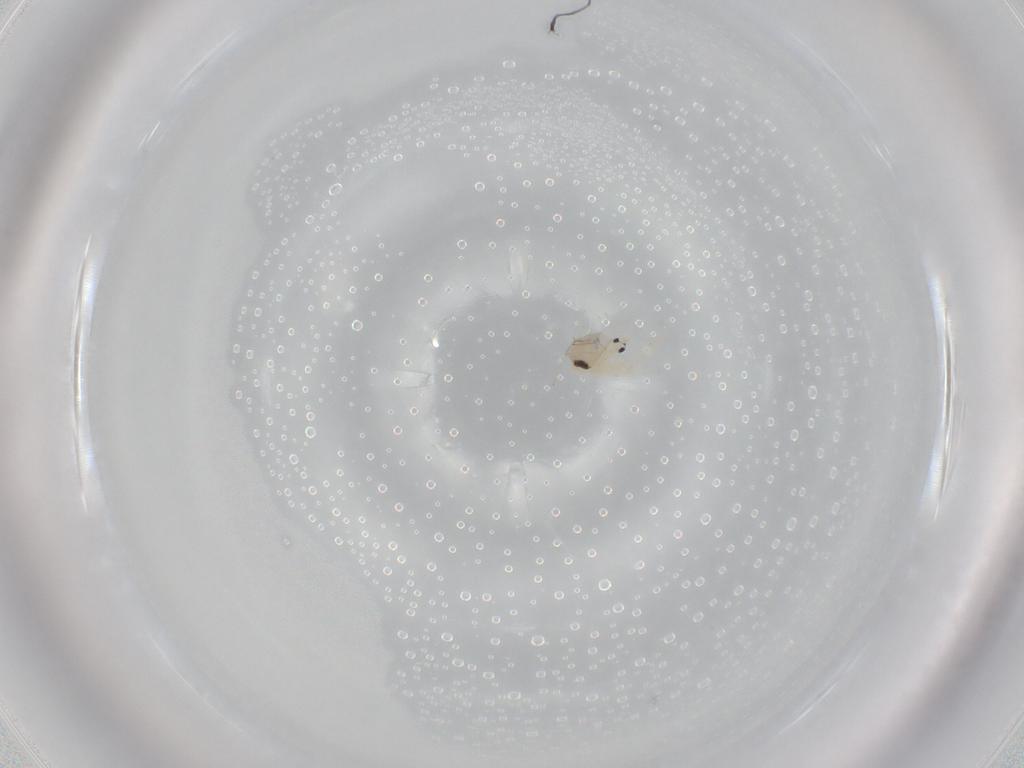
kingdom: Animalia
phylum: Arthropoda
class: Collembola
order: Entomobryomorpha
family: Entomobryidae
